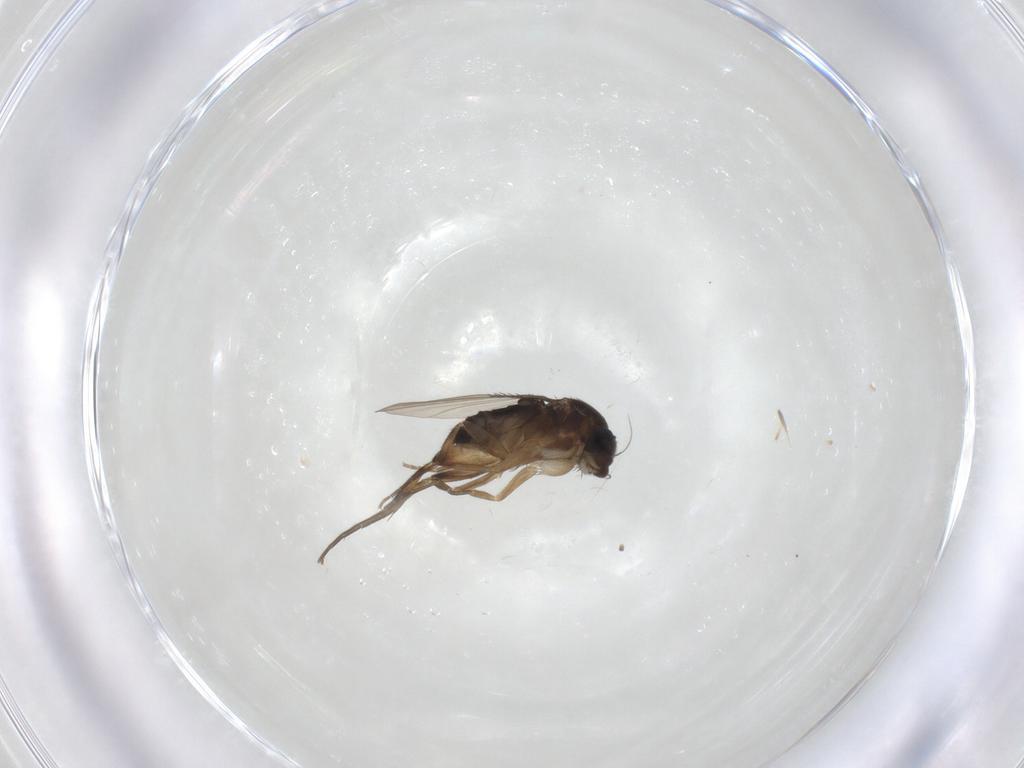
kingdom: Animalia
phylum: Arthropoda
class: Insecta
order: Diptera
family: Phoridae
